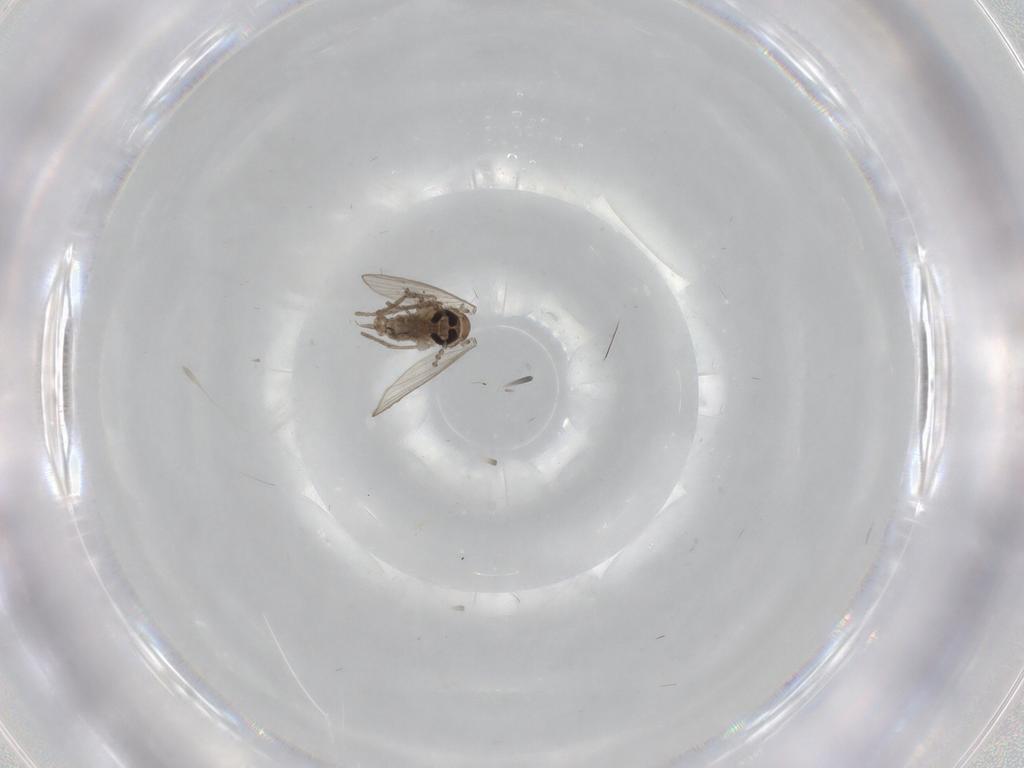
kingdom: Animalia
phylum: Arthropoda
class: Insecta
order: Diptera
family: Psychodidae
